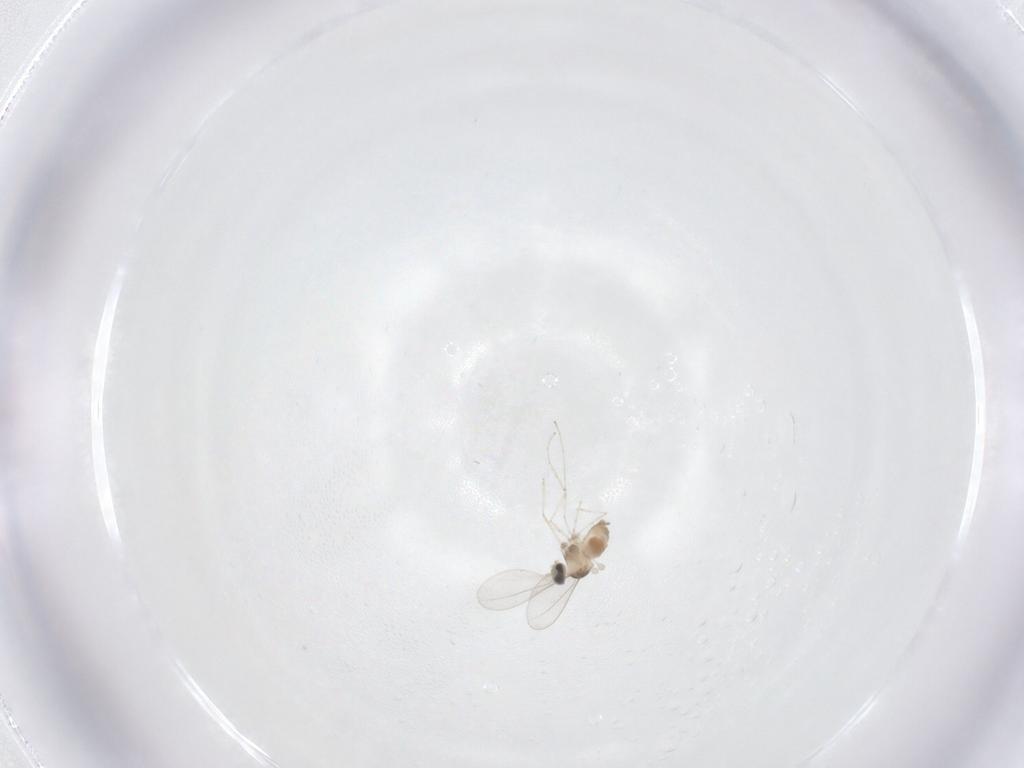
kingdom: Animalia
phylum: Arthropoda
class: Insecta
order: Diptera
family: Cecidomyiidae
